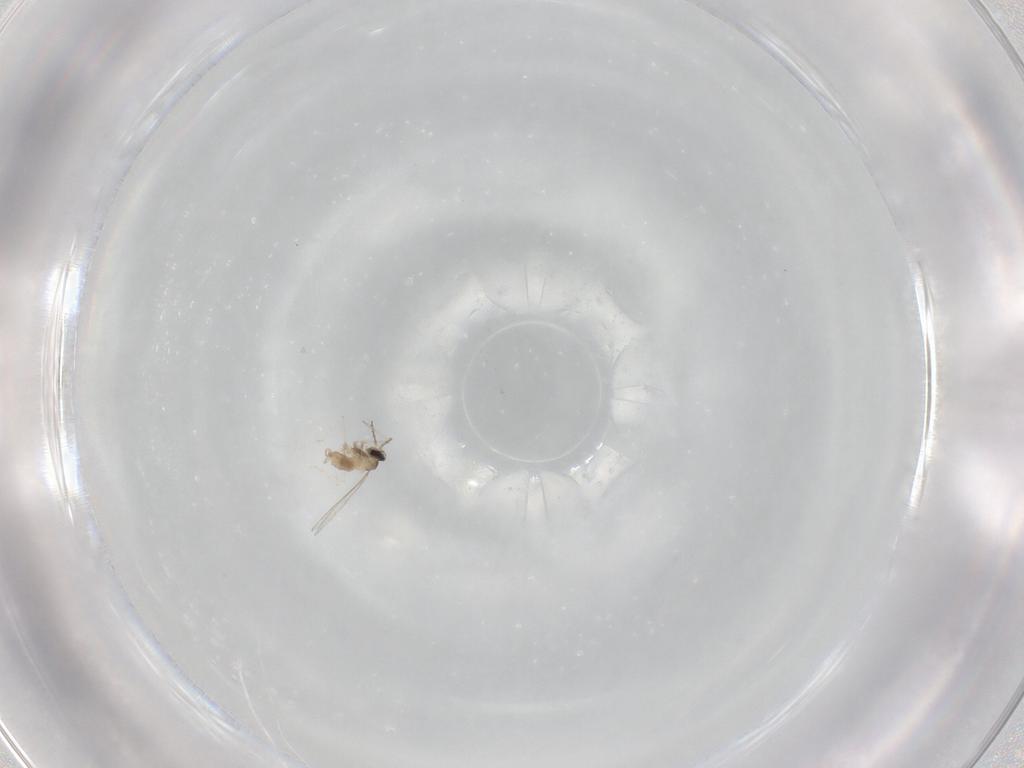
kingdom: Animalia
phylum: Arthropoda
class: Insecta
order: Diptera
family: Cecidomyiidae
